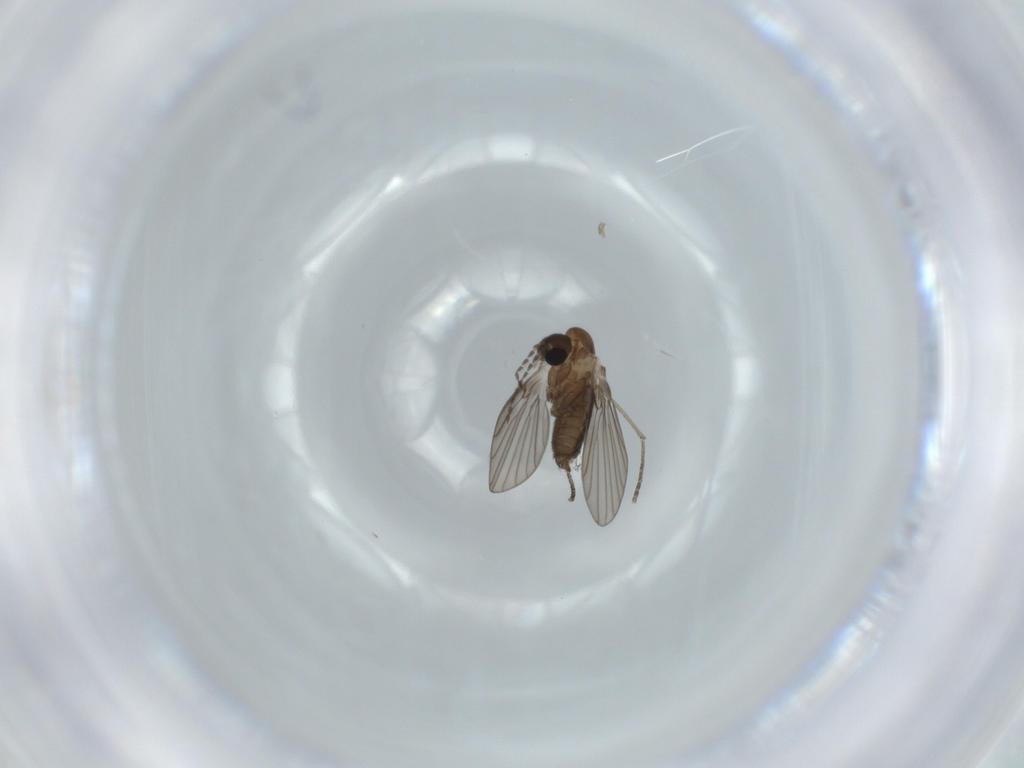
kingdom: Animalia
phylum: Arthropoda
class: Insecta
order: Diptera
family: Psychodidae
